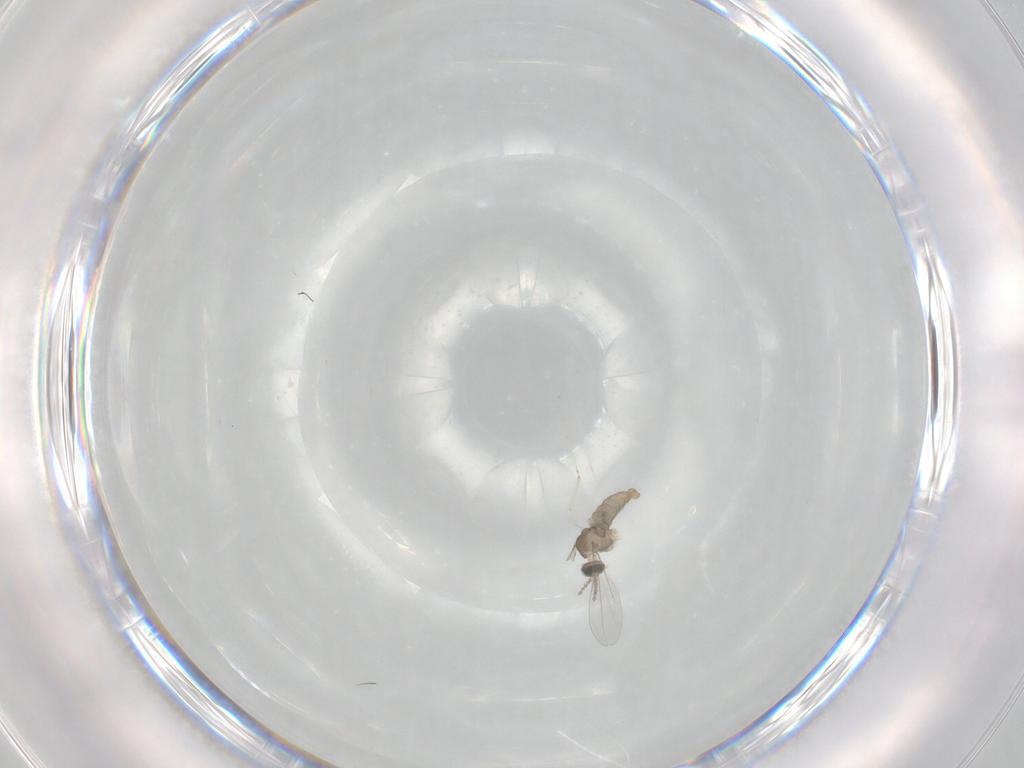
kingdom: Animalia
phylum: Arthropoda
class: Insecta
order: Diptera
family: Cecidomyiidae
